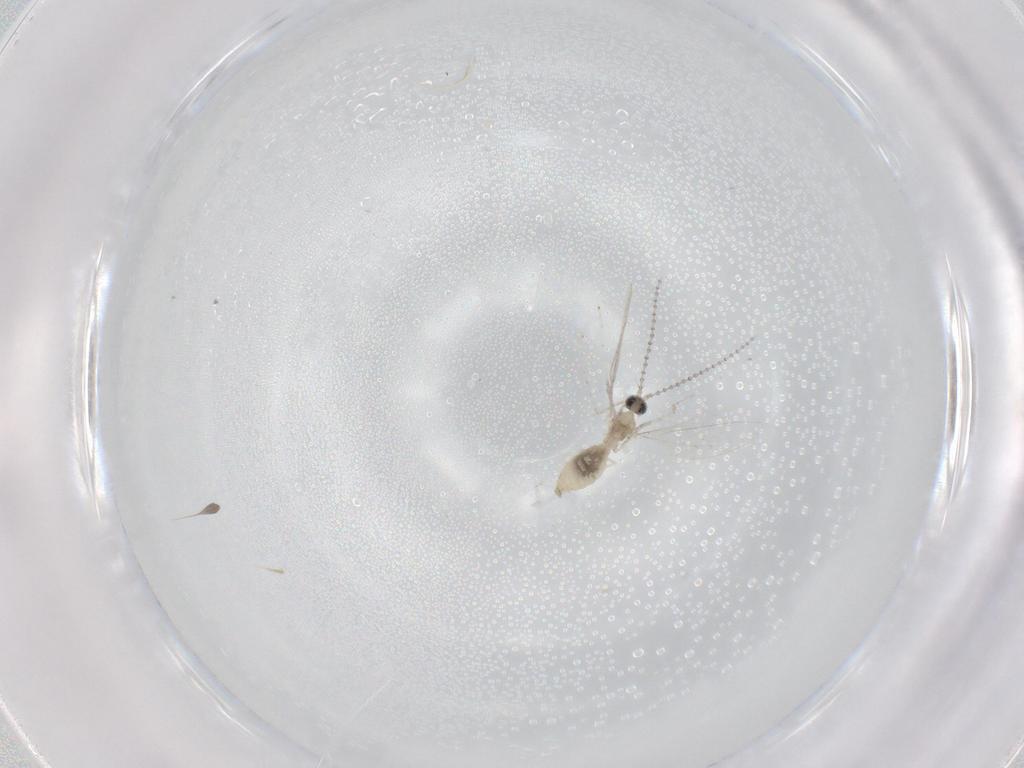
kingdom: Animalia
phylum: Arthropoda
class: Insecta
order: Diptera
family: Cecidomyiidae
